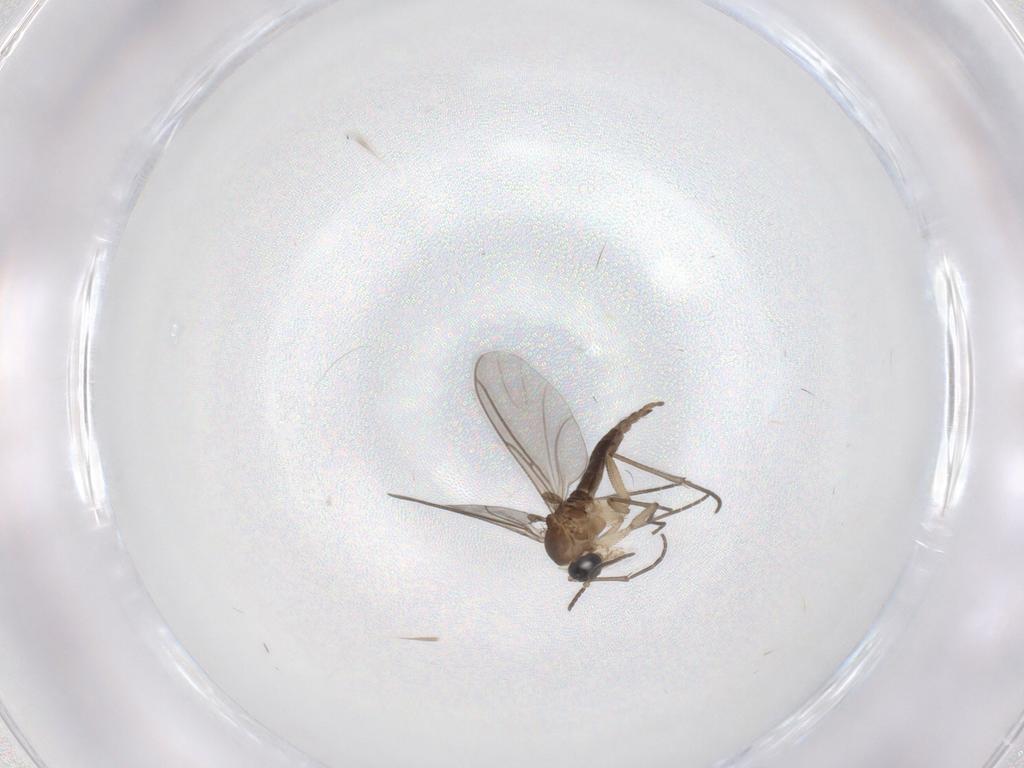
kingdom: Animalia
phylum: Arthropoda
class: Insecta
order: Diptera
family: Sciaridae
